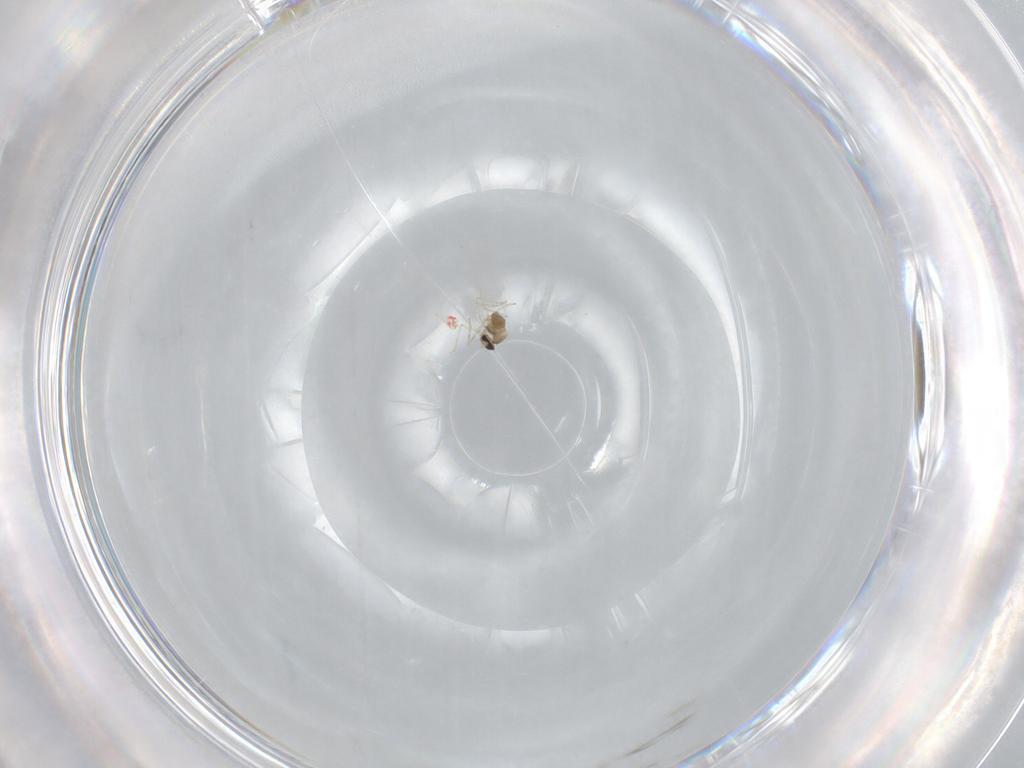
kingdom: Animalia
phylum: Arthropoda
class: Insecta
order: Diptera
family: Cecidomyiidae
